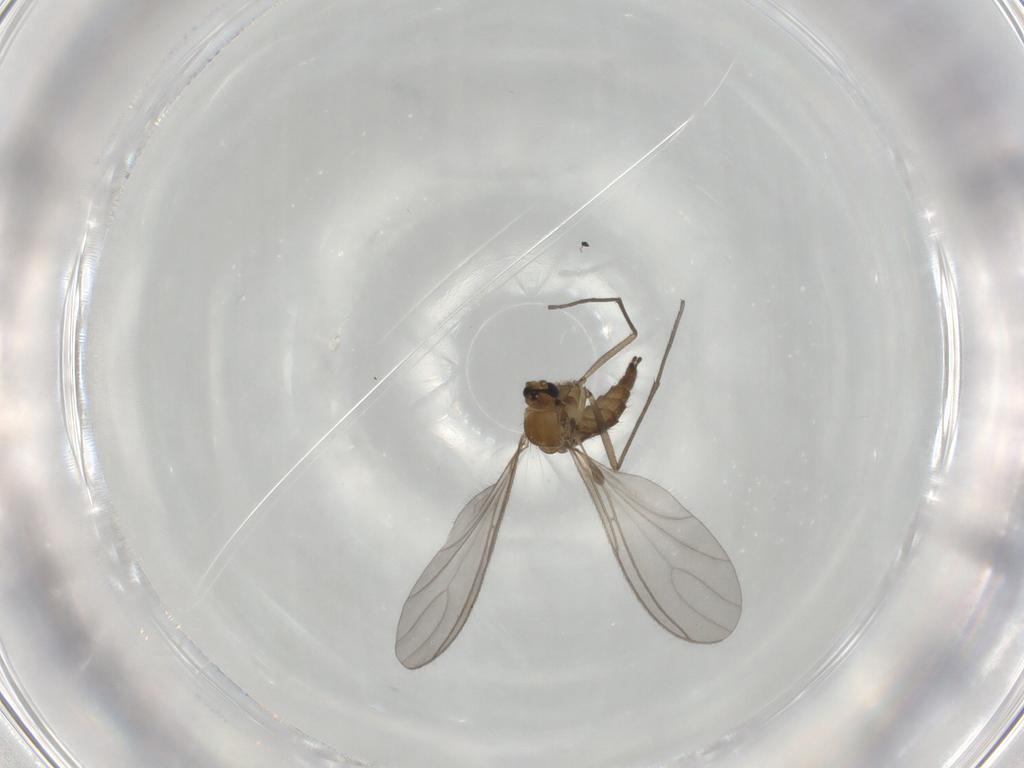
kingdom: Animalia
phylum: Arthropoda
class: Insecta
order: Diptera
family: Sciaridae
